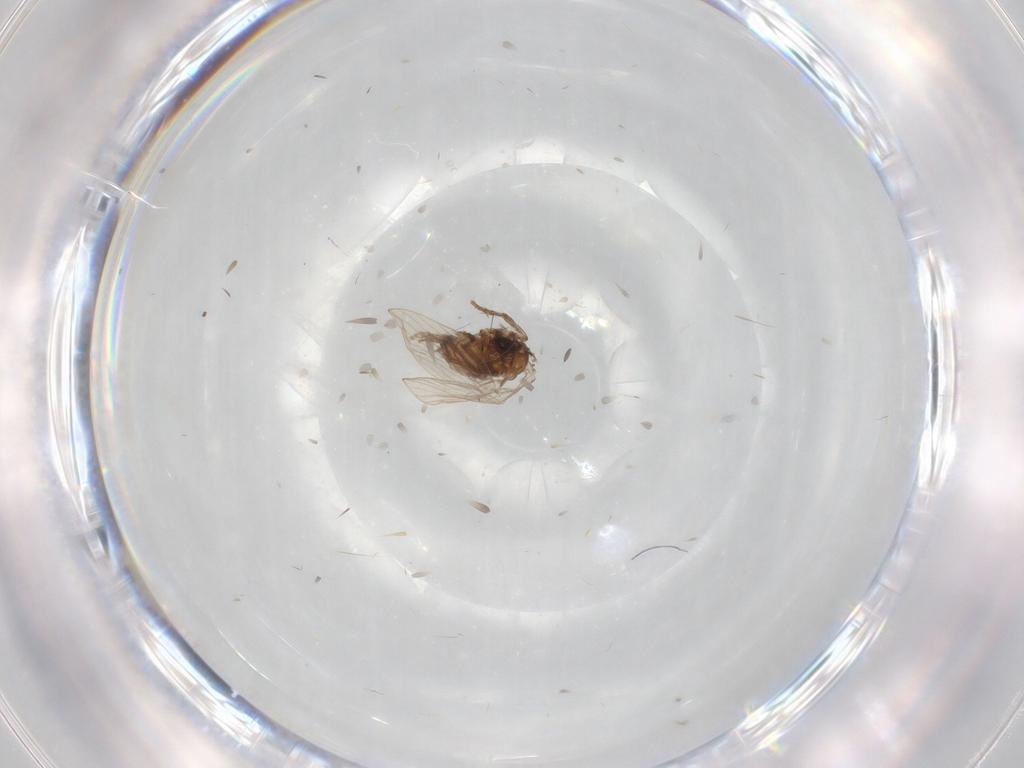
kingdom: Animalia
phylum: Arthropoda
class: Insecta
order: Diptera
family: Psychodidae
